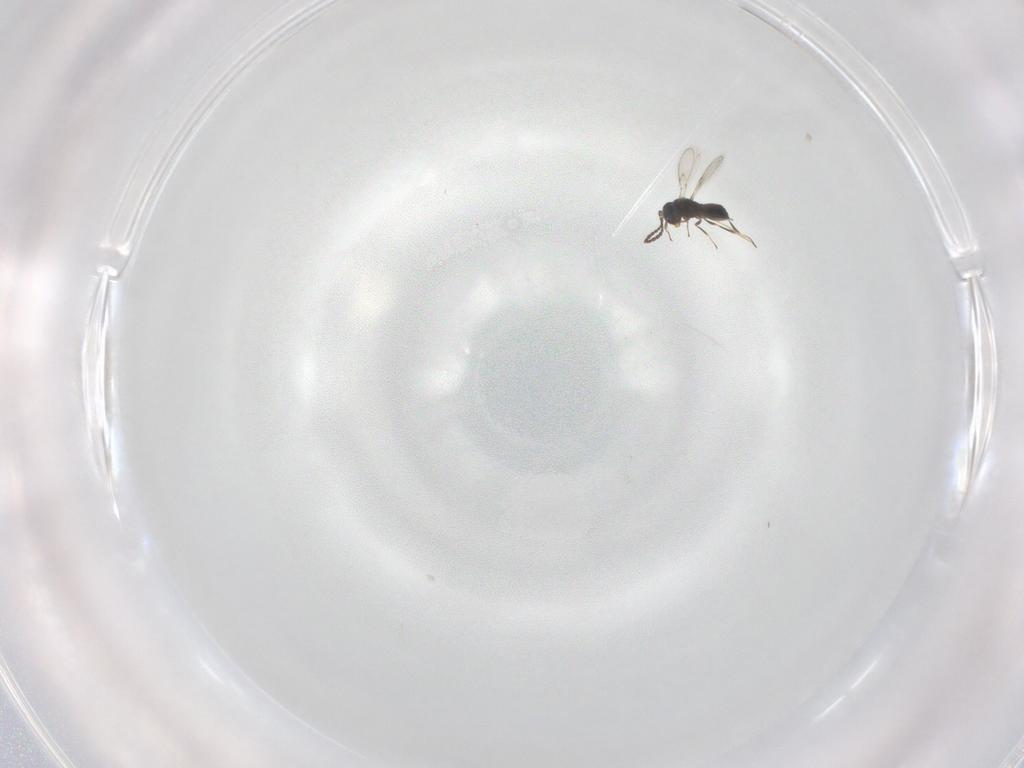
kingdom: Animalia
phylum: Arthropoda
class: Insecta
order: Hymenoptera
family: Scelionidae
